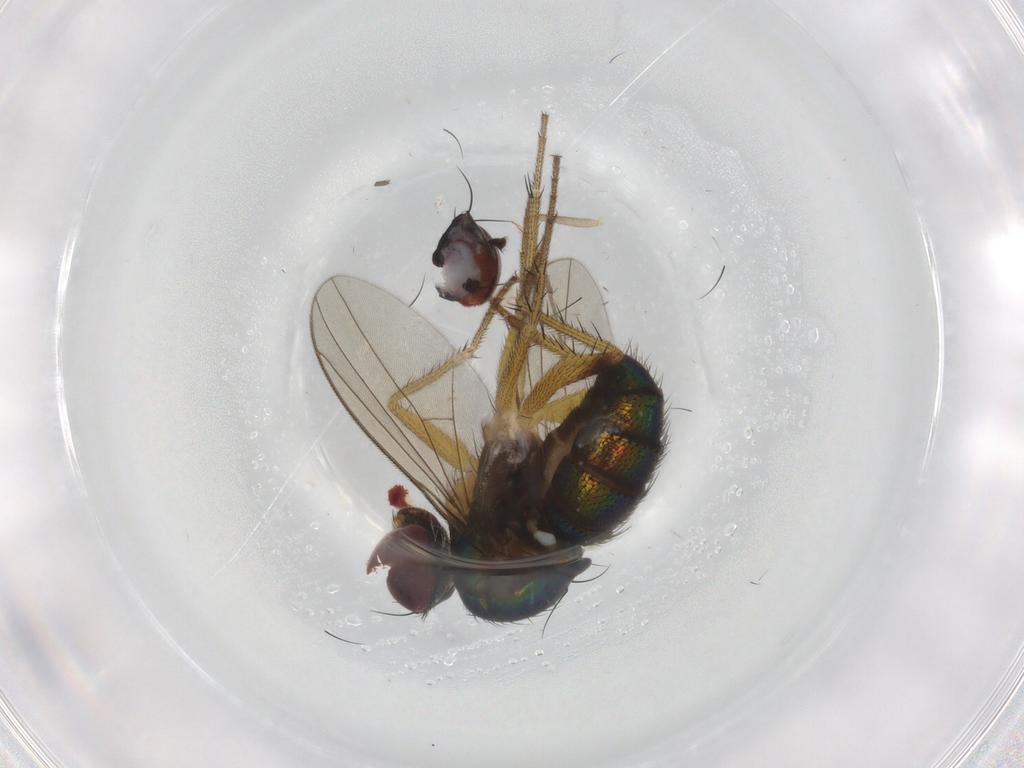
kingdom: Animalia
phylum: Arthropoda
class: Insecta
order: Diptera
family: Dolichopodidae
